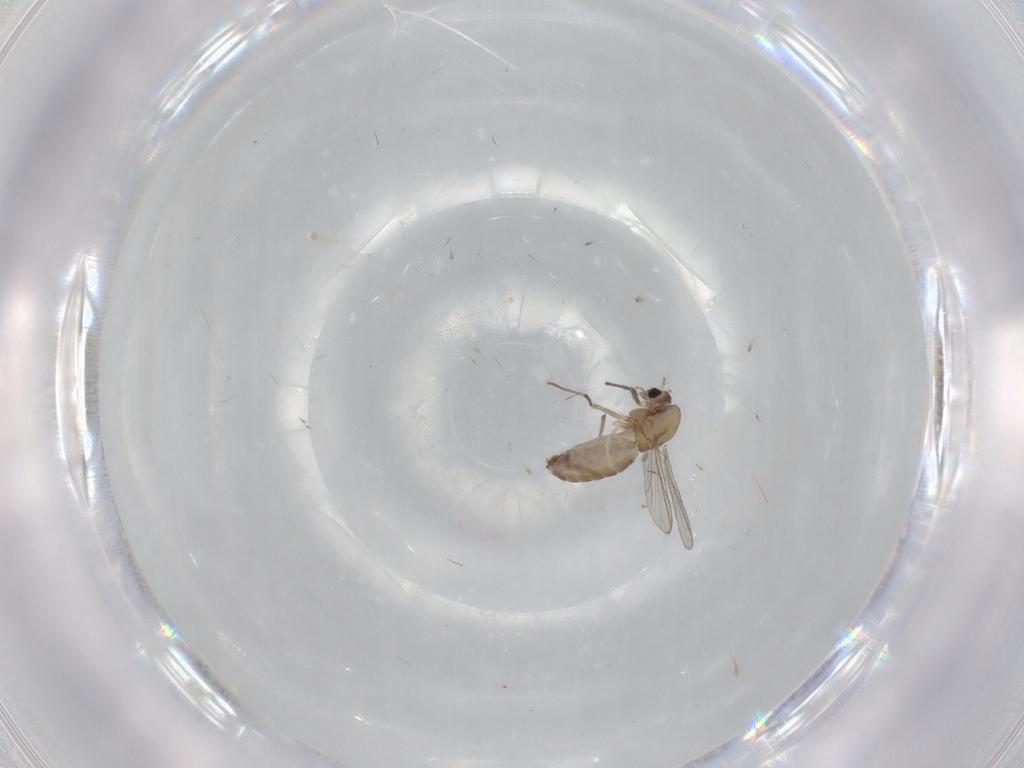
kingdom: Animalia
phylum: Arthropoda
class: Insecta
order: Diptera
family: Chironomidae
